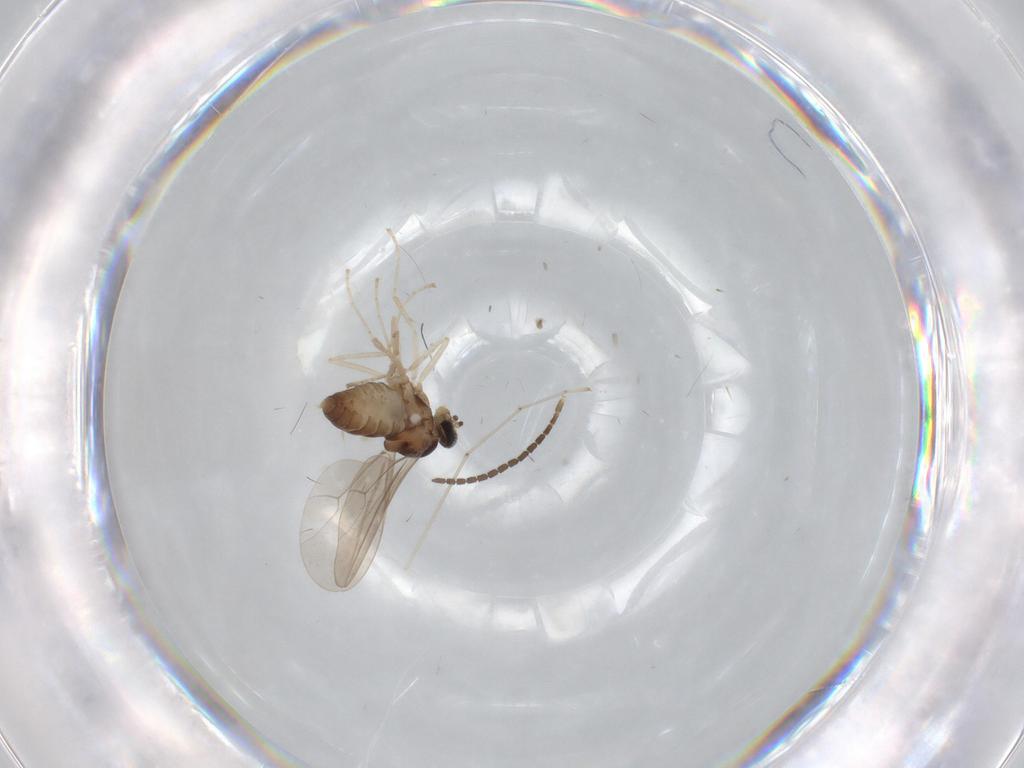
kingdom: Animalia
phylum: Arthropoda
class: Insecta
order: Diptera
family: Cecidomyiidae
